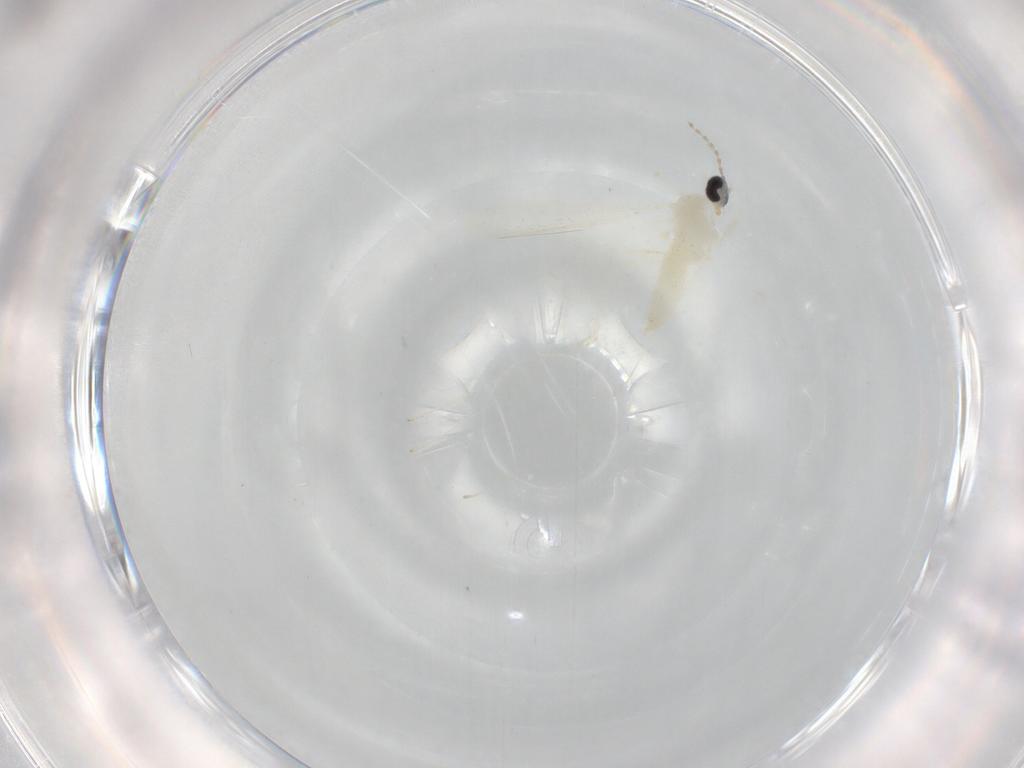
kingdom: Animalia
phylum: Arthropoda
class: Insecta
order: Diptera
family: Cecidomyiidae
